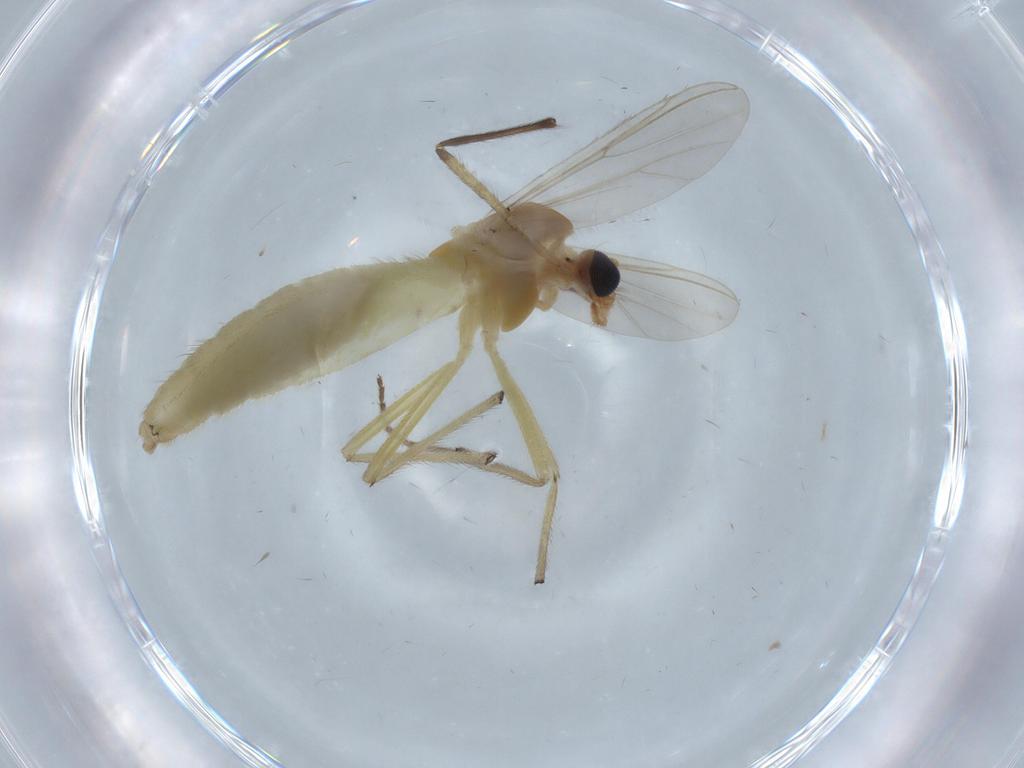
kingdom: Animalia
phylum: Arthropoda
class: Insecta
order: Diptera
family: Chironomidae
